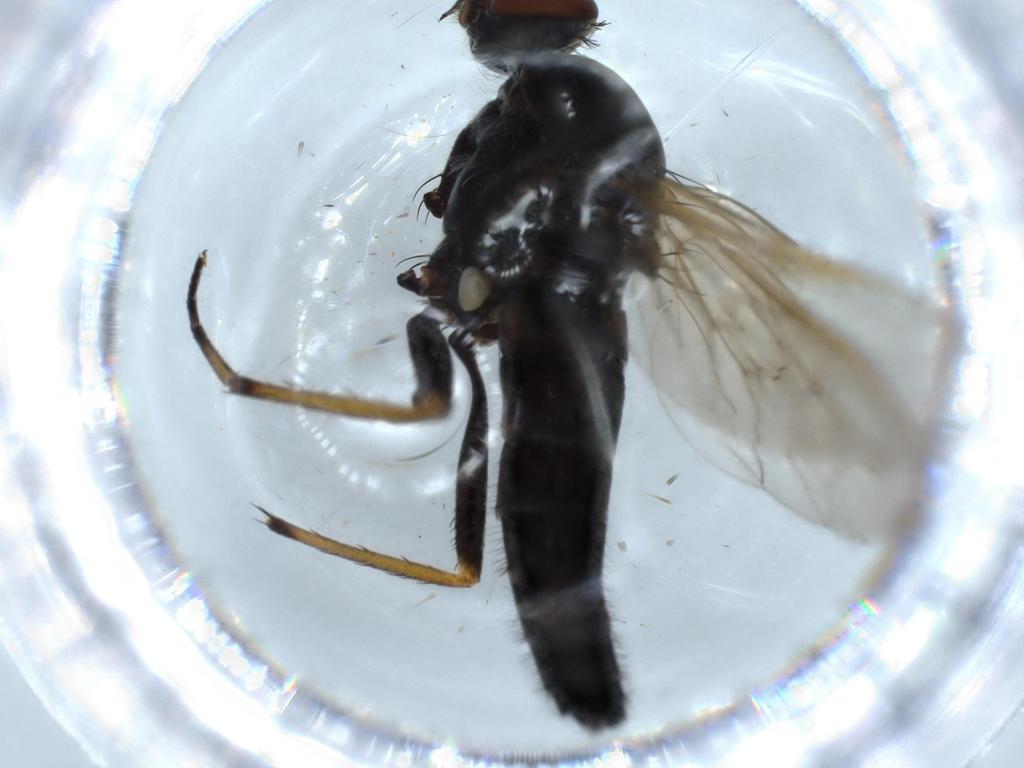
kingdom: Animalia
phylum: Arthropoda
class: Insecta
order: Diptera
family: Therevidae
